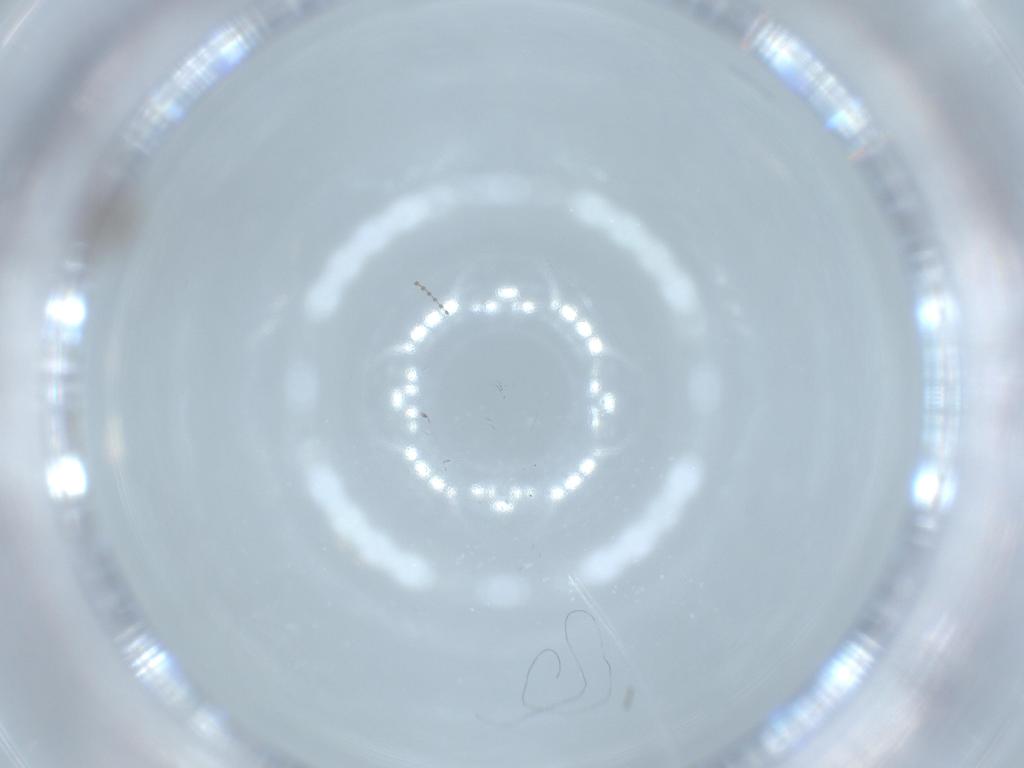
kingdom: Animalia
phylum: Arthropoda
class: Insecta
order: Diptera
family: Cecidomyiidae
